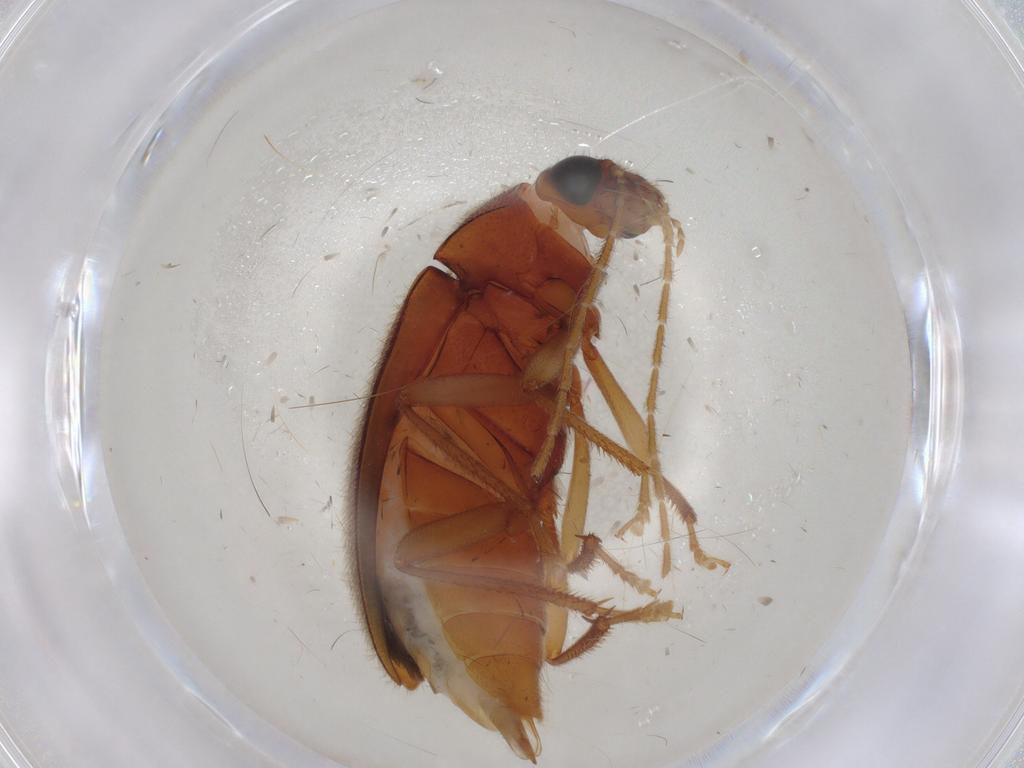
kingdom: Animalia
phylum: Arthropoda
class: Insecta
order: Coleoptera
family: Ptilodactylidae
